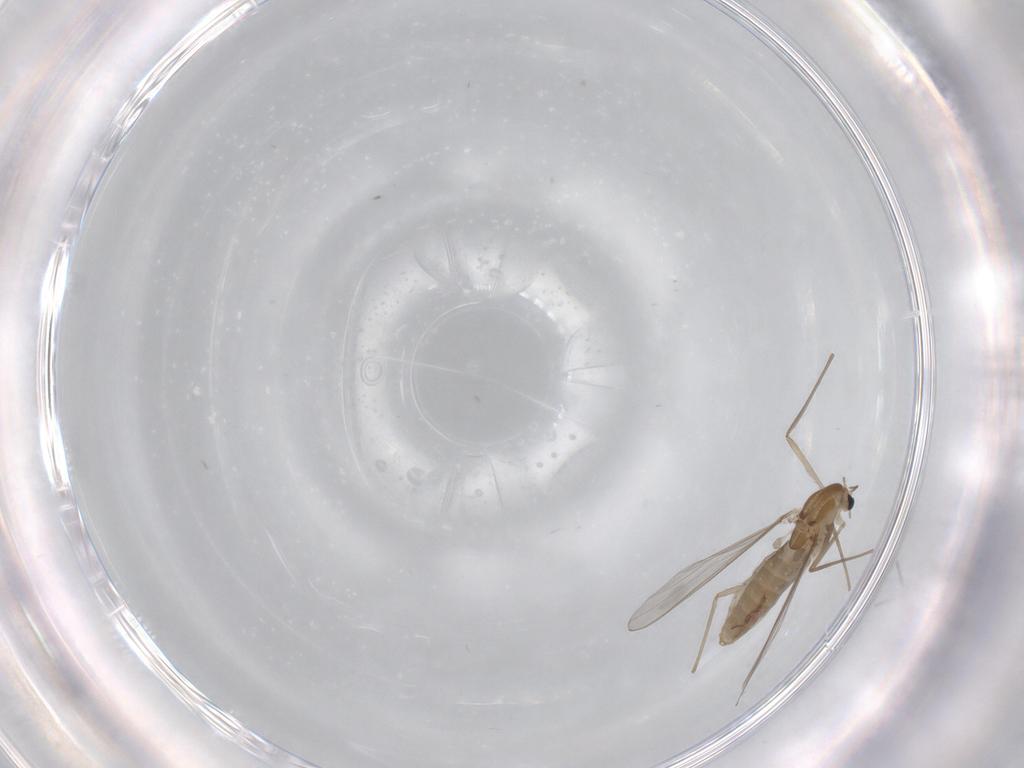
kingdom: Animalia
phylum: Arthropoda
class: Insecta
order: Diptera
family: Chironomidae
